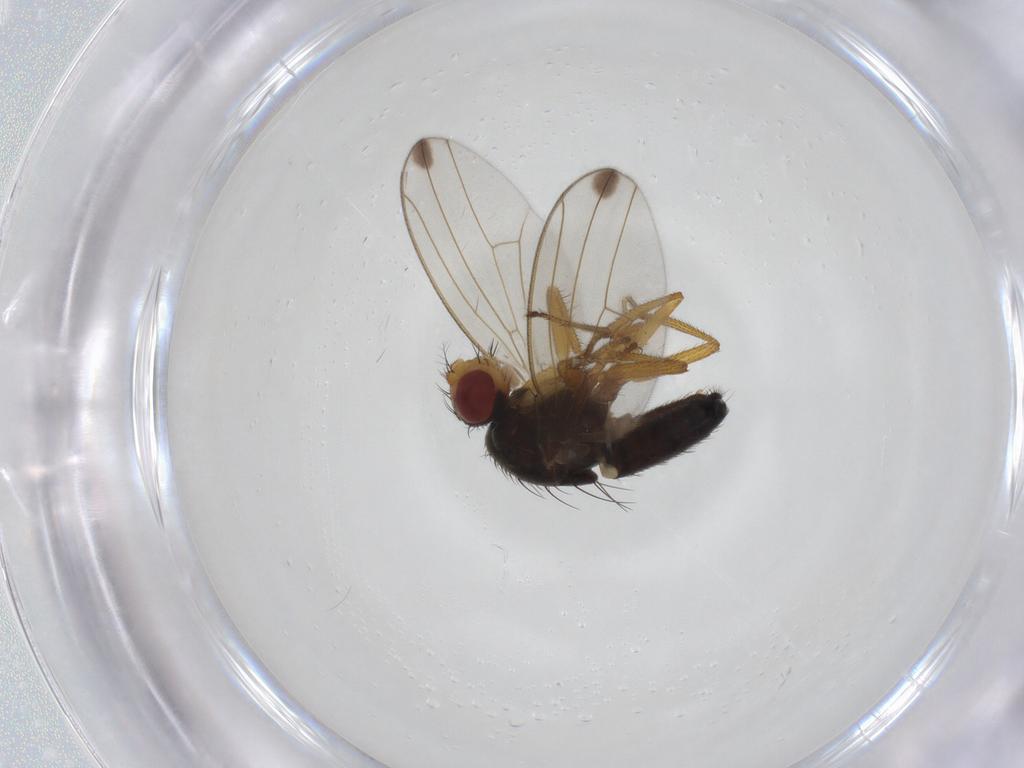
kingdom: Animalia
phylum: Arthropoda
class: Insecta
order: Diptera
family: Drosophilidae
